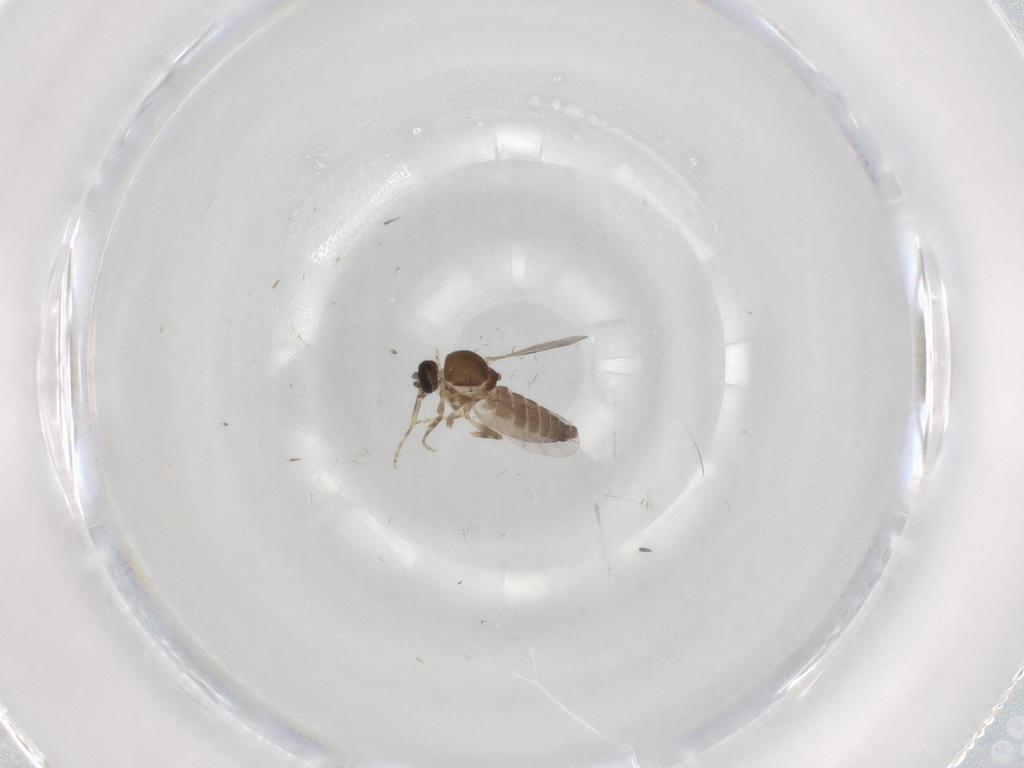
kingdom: Animalia
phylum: Arthropoda
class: Insecta
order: Diptera
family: Ceratopogonidae
